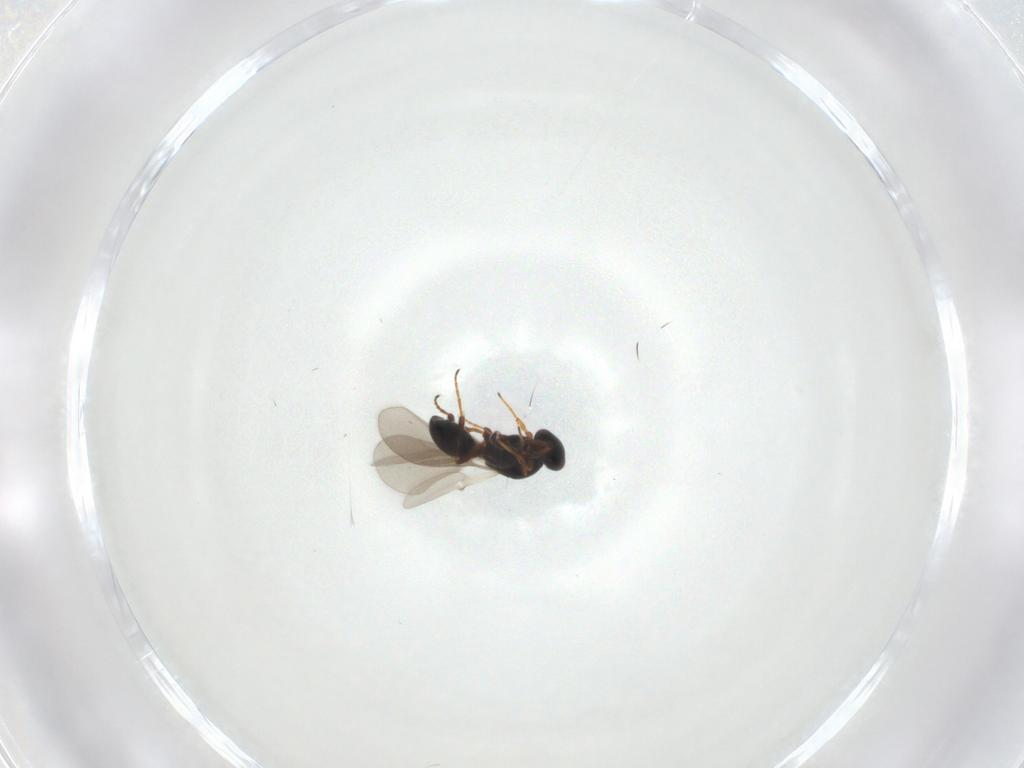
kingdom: Animalia
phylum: Arthropoda
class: Insecta
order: Hymenoptera
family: Platygastridae
